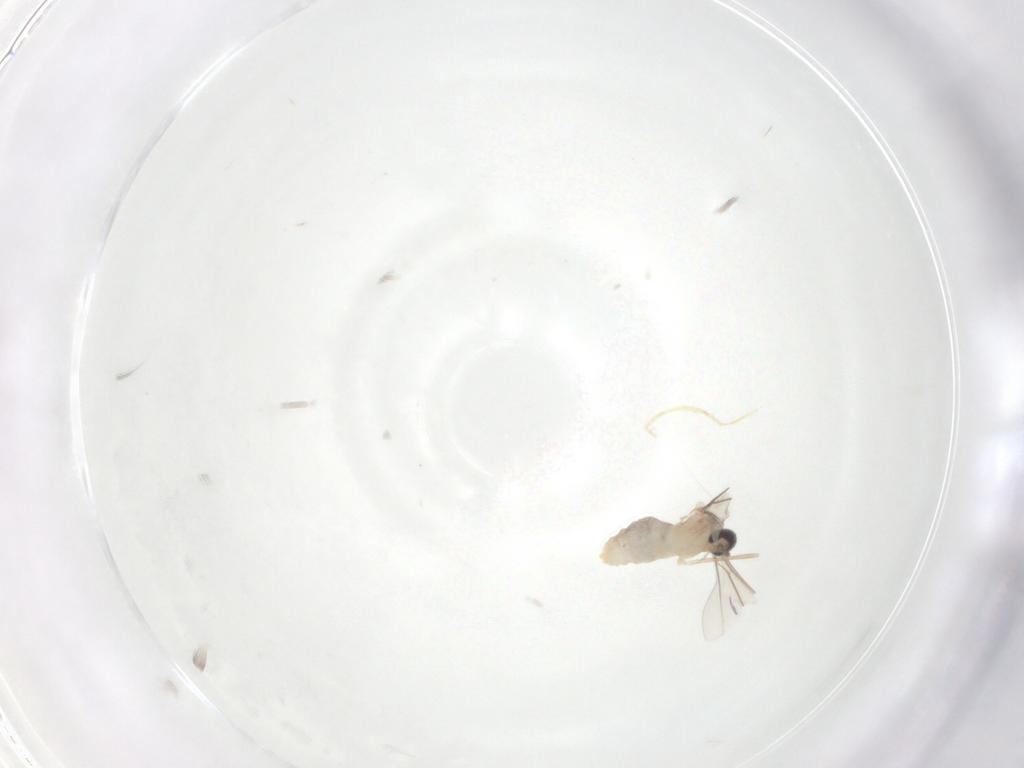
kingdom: Animalia
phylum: Arthropoda
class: Insecta
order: Diptera
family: Cecidomyiidae
